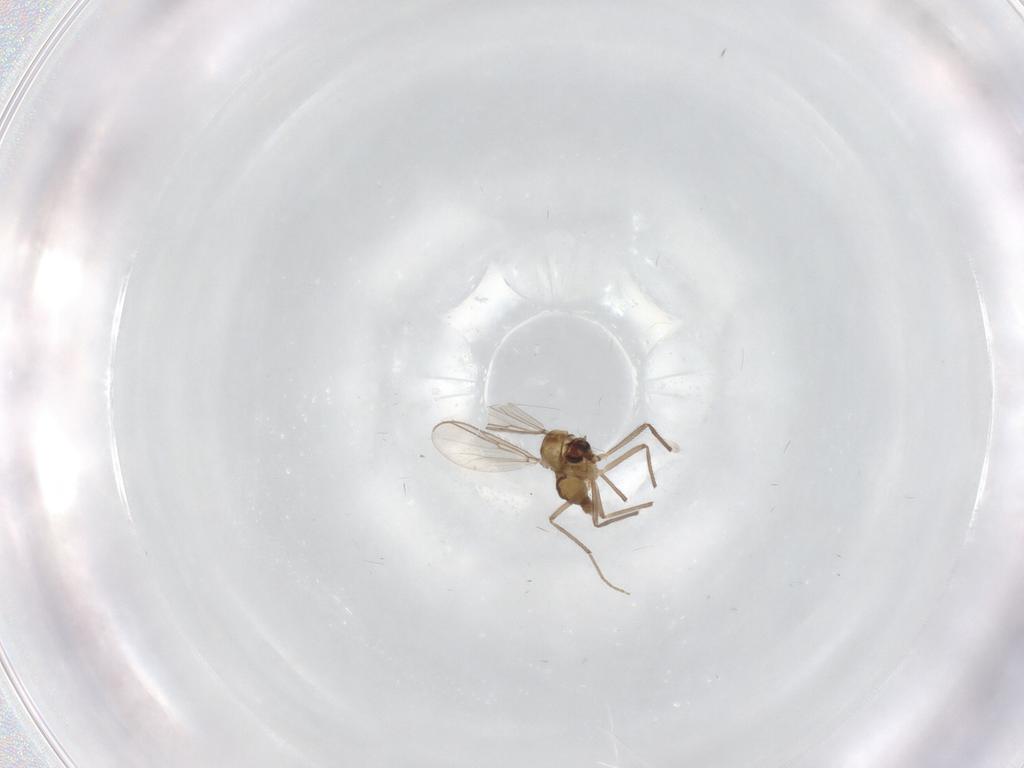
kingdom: Animalia
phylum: Arthropoda
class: Insecta
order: Diptera
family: Chironomidae
